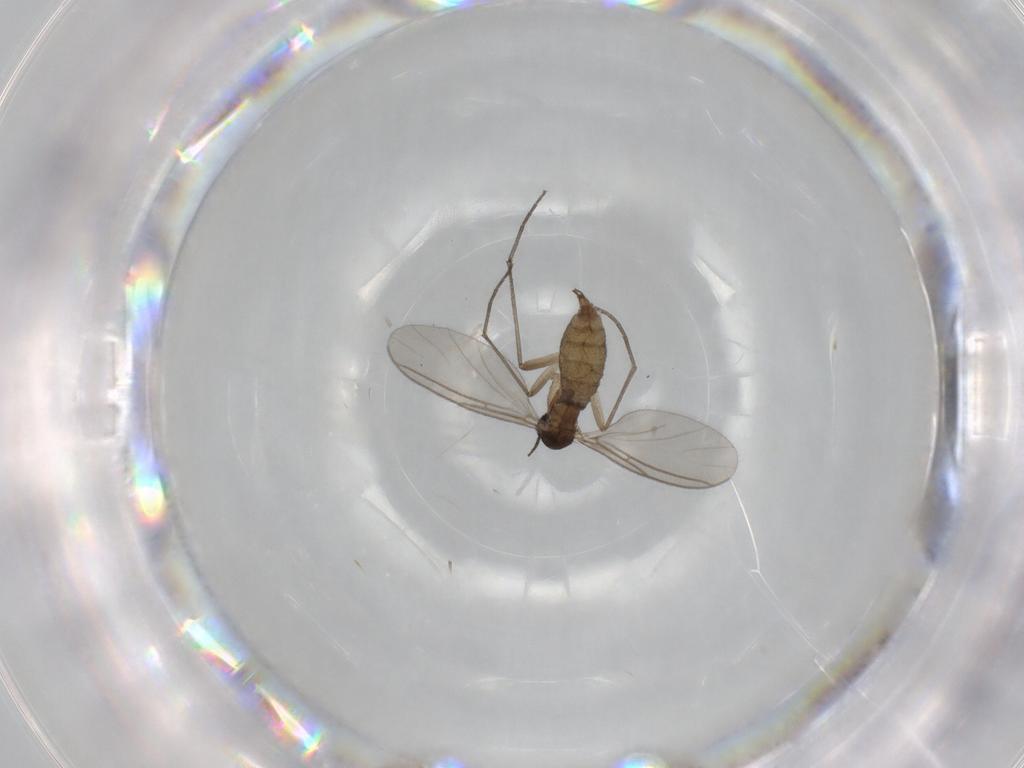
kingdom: Animalia
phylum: Arthropoda
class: Insecta
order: Diptera
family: Sciaridae
